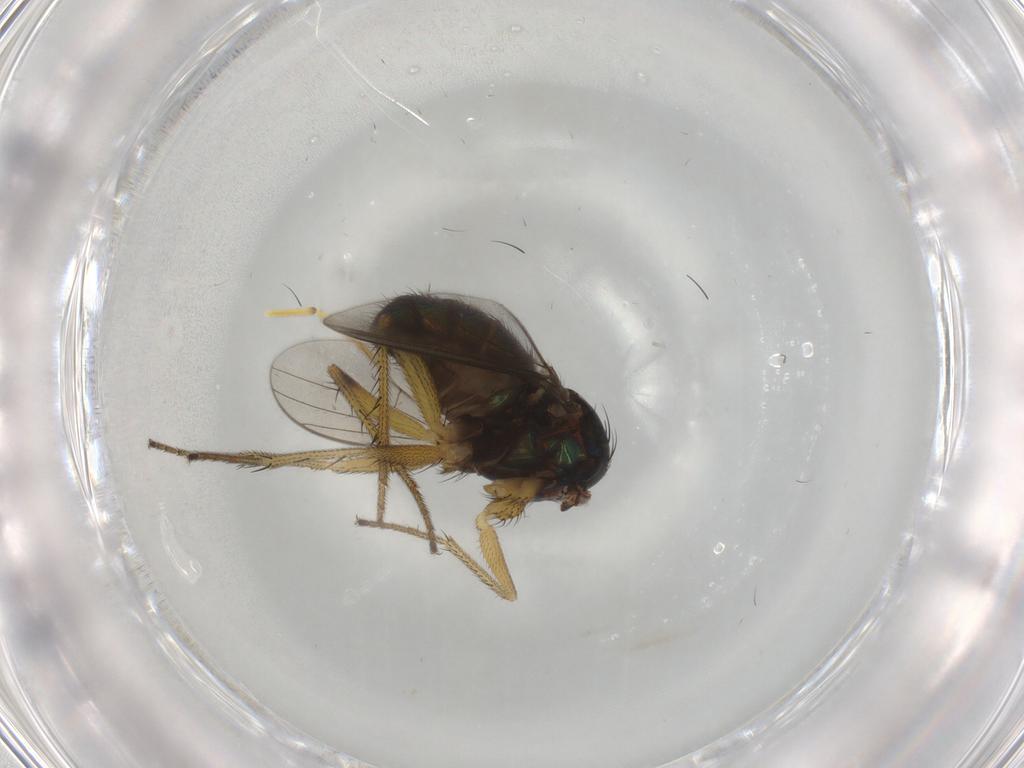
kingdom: Animalia
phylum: Arthropoda
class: Insecta
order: Diptera
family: Dolichopodidae
